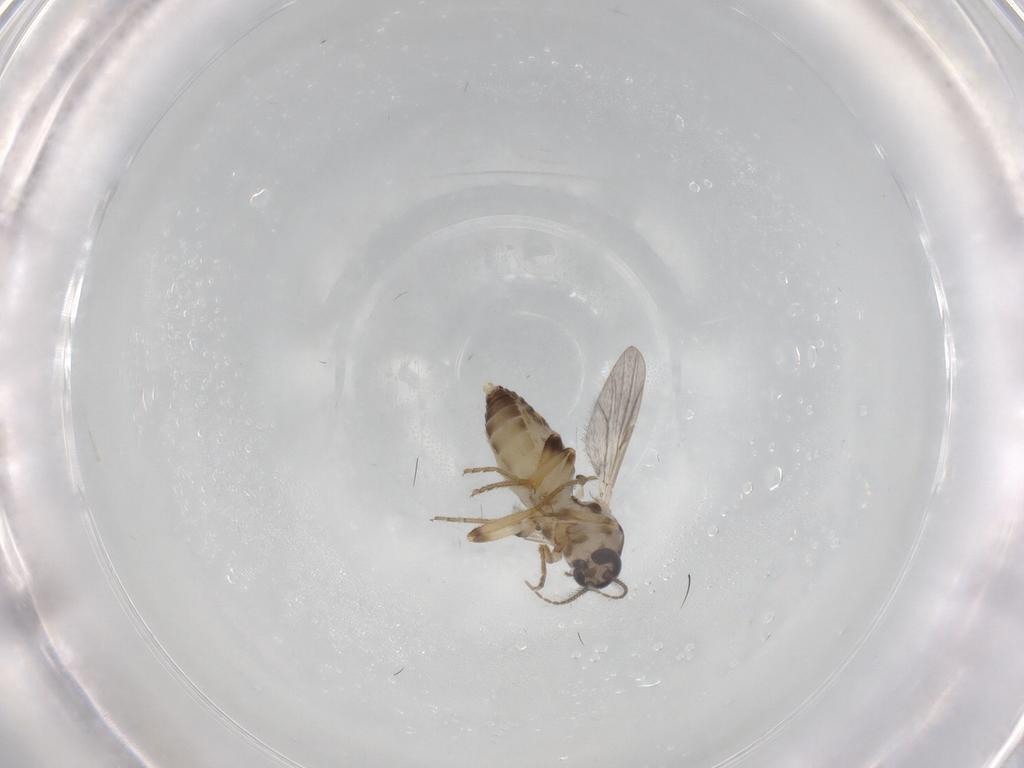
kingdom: Animalia
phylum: Arthropoda
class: Insecta
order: Diptera
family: Ceratopogonidae
